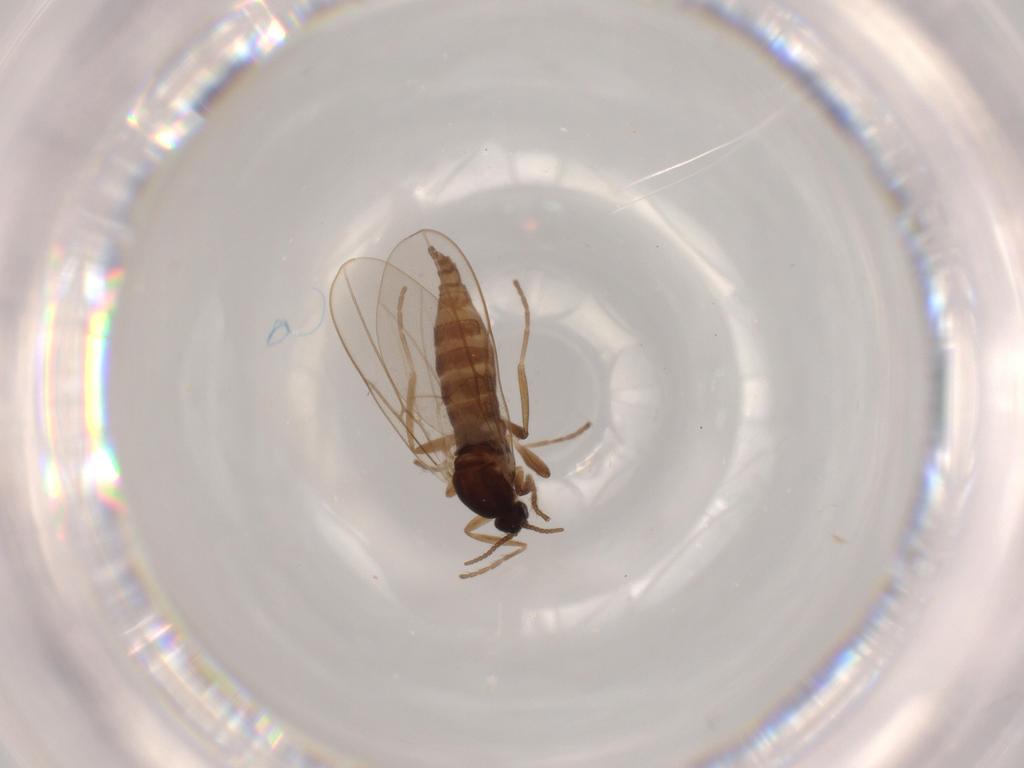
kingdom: Animalia
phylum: Arthropoda
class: Insecta
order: Diptera
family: Cecidomyiidae
